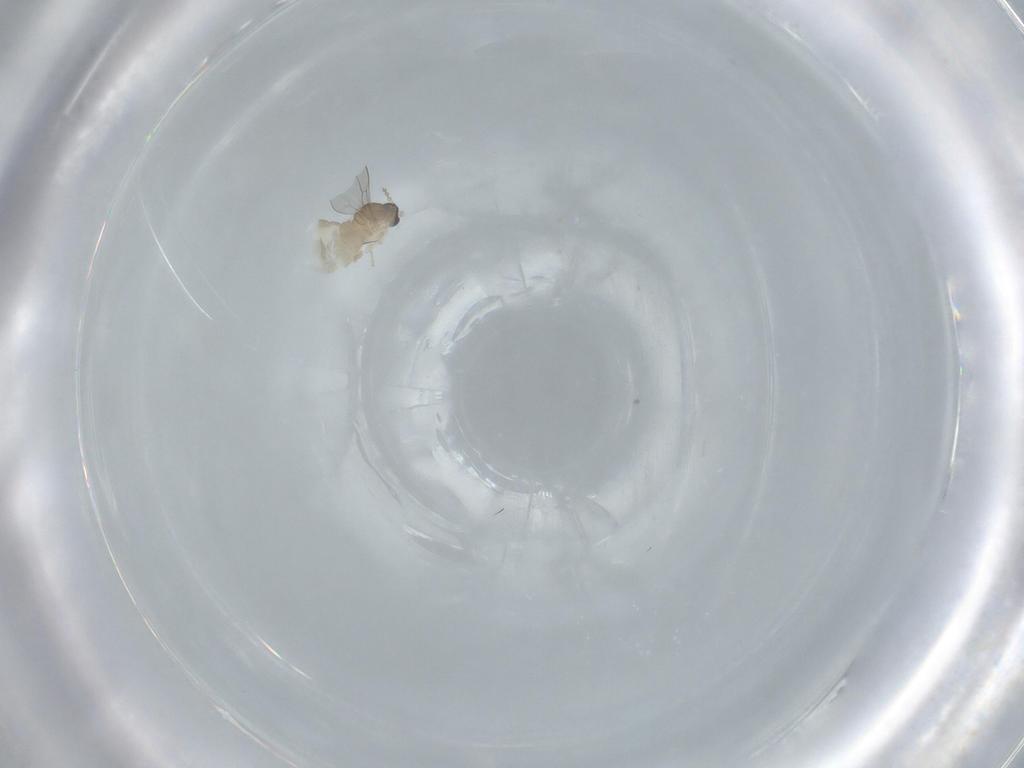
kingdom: Animalia
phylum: Arthropoda
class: Insecta
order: Diptera
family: Cecidomyiidae
